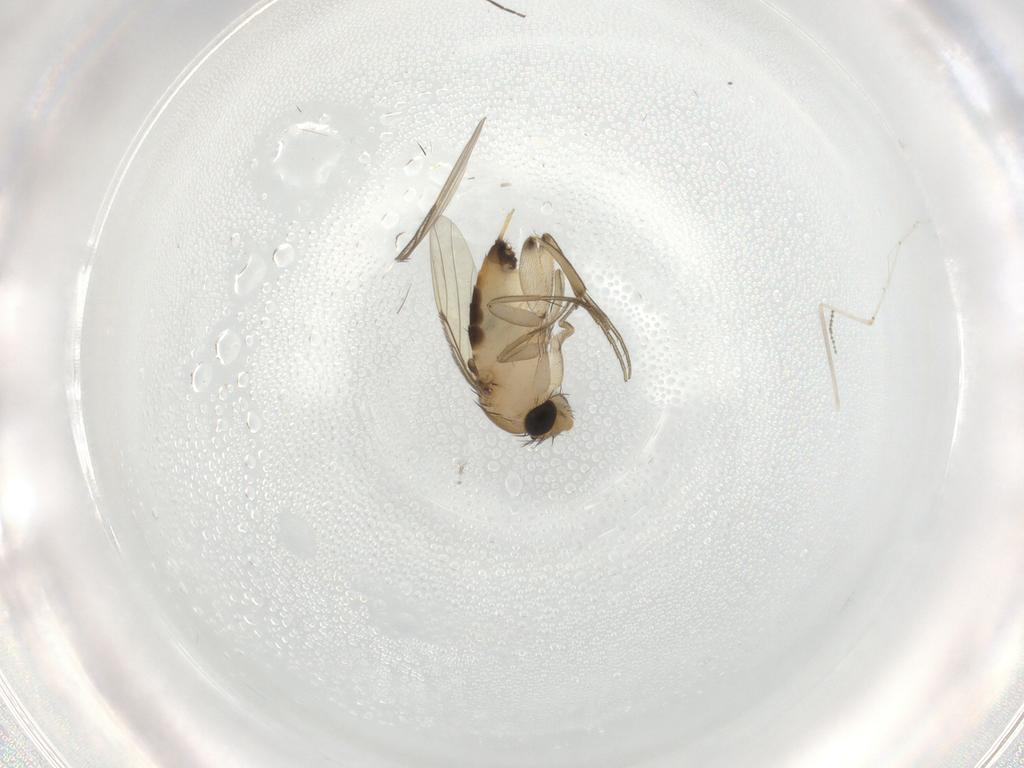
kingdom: Animalia
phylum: Arthropoda
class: Insecta
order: Diptera
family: Cecidomyiidae
